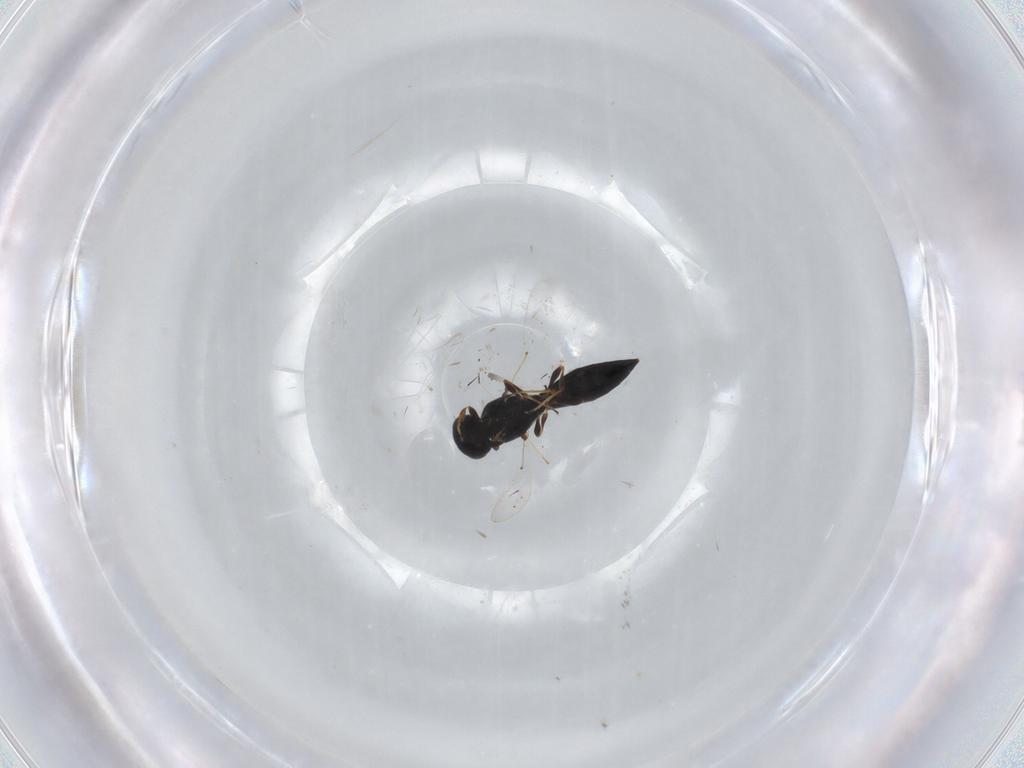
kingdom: Animalia
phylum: Arthropoda
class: Insecta
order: Hymenoptera
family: Platygastridae
